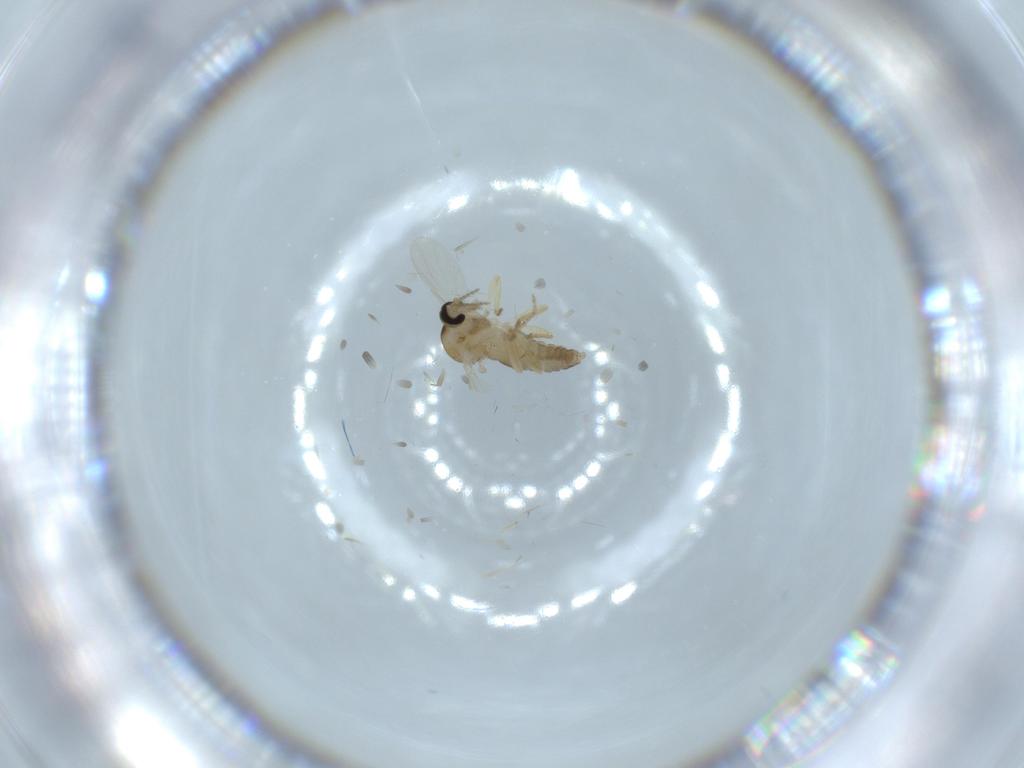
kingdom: Animalia
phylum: Arthropoda
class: Insecta
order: Diptera
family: Ceratopogonidae
